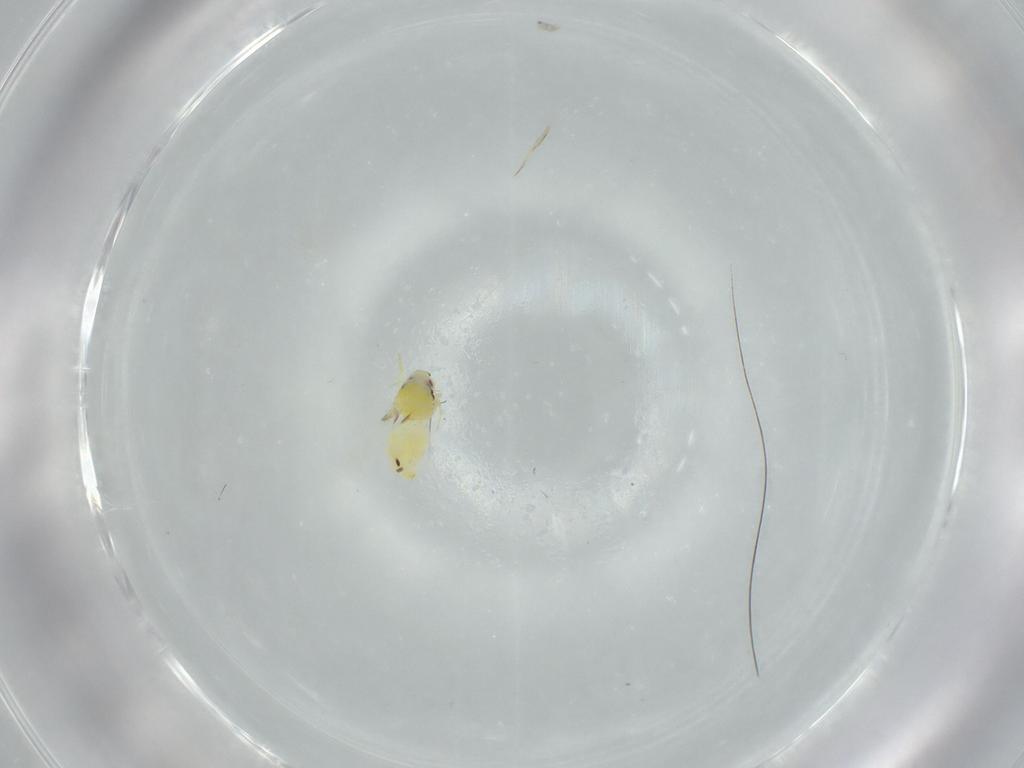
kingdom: Animalia
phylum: Arthropoda
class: Insecta
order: Hemiptera
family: Aleyrodidae
